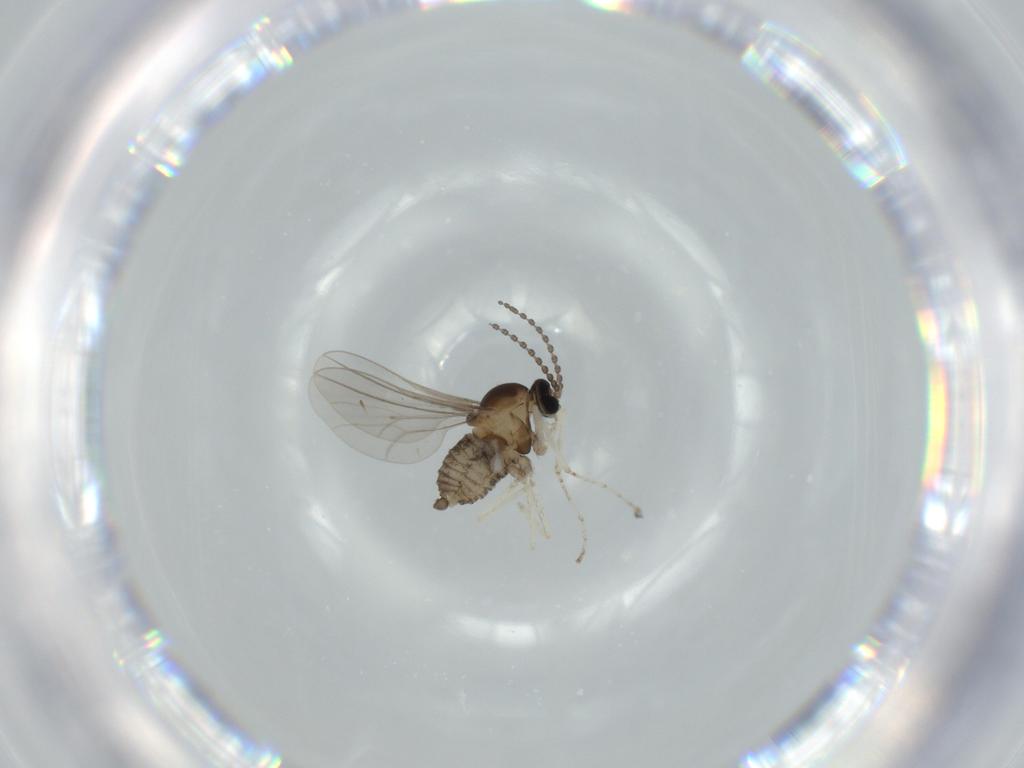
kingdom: Animalia
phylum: Arthropoda
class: Insecta
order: Diptera
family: Cecidomyiidae
